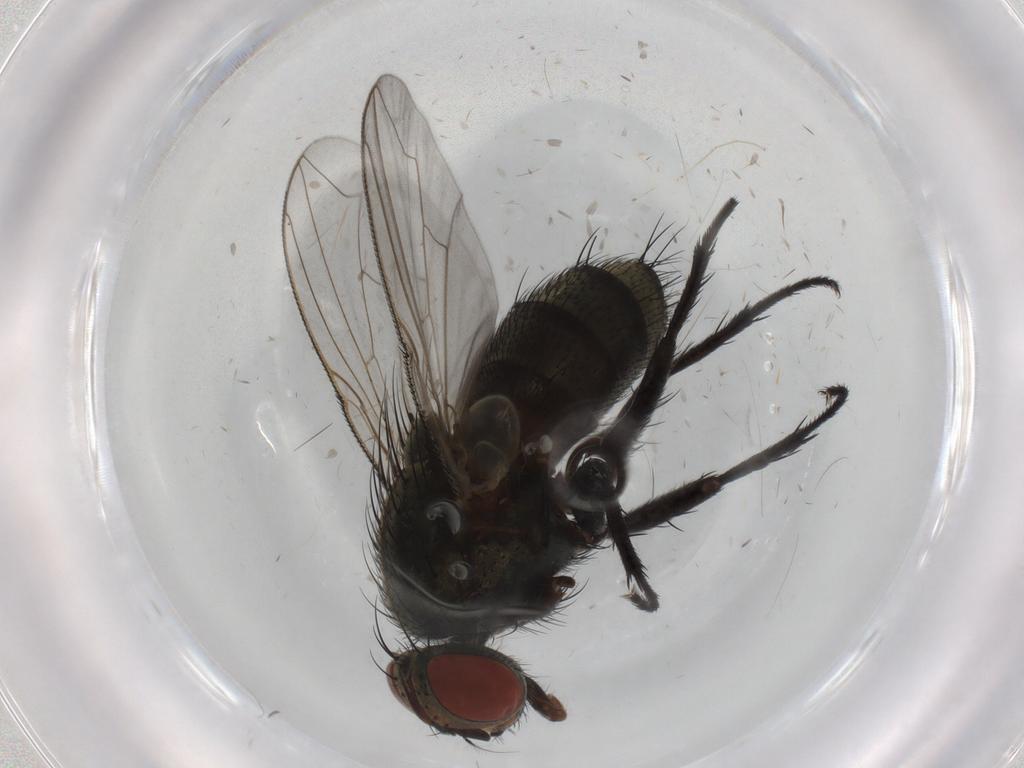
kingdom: Animalia
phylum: Arthropoda
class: Insecta
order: Diptera
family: Sarcophagidae
